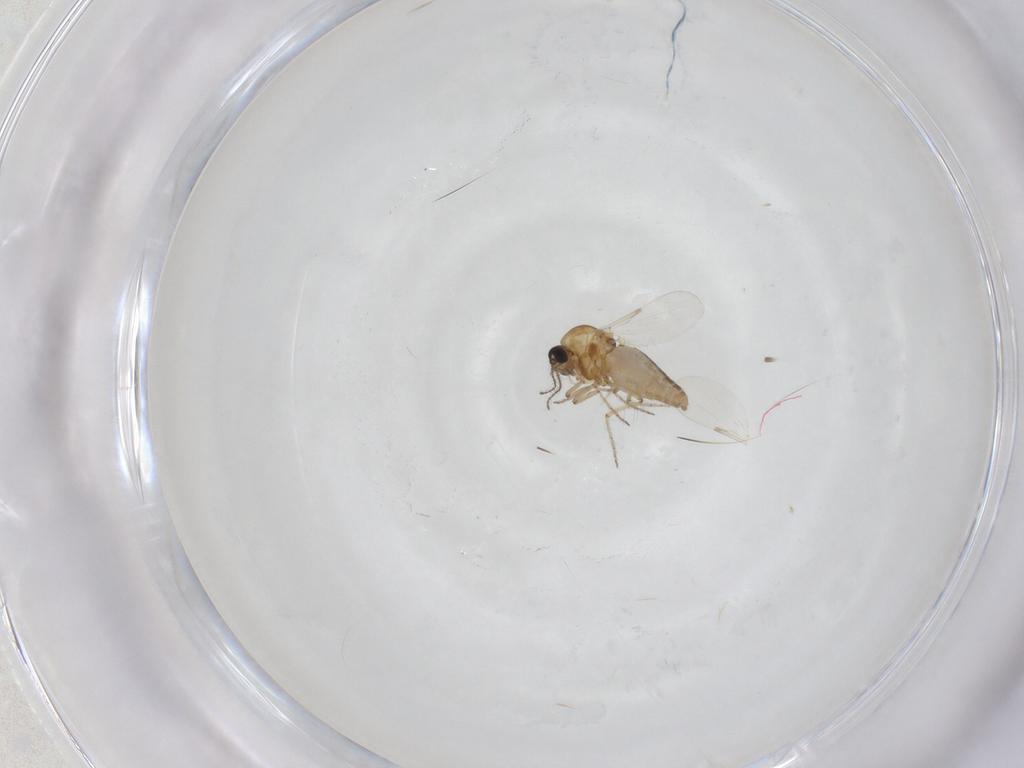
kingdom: Animalia
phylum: Arthropoda
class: Insecta
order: Diptera
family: Ceratopogonidae
